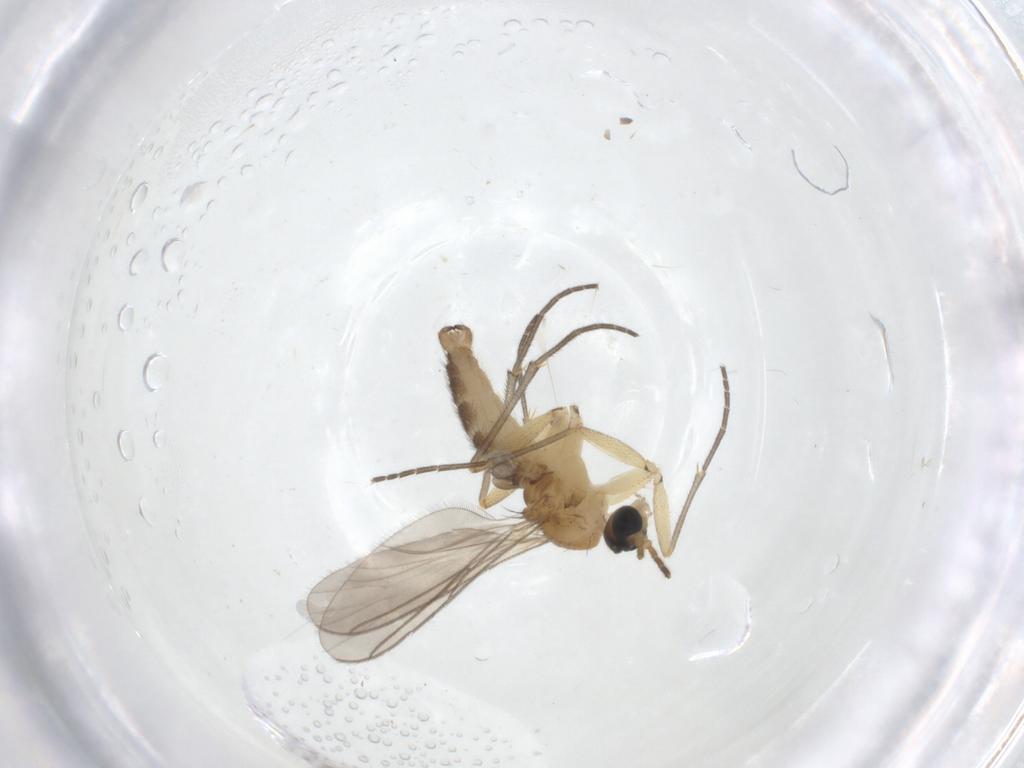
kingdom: Animalia
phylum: Arthropoda
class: Insecta
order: Diptera
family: Sciaridae
